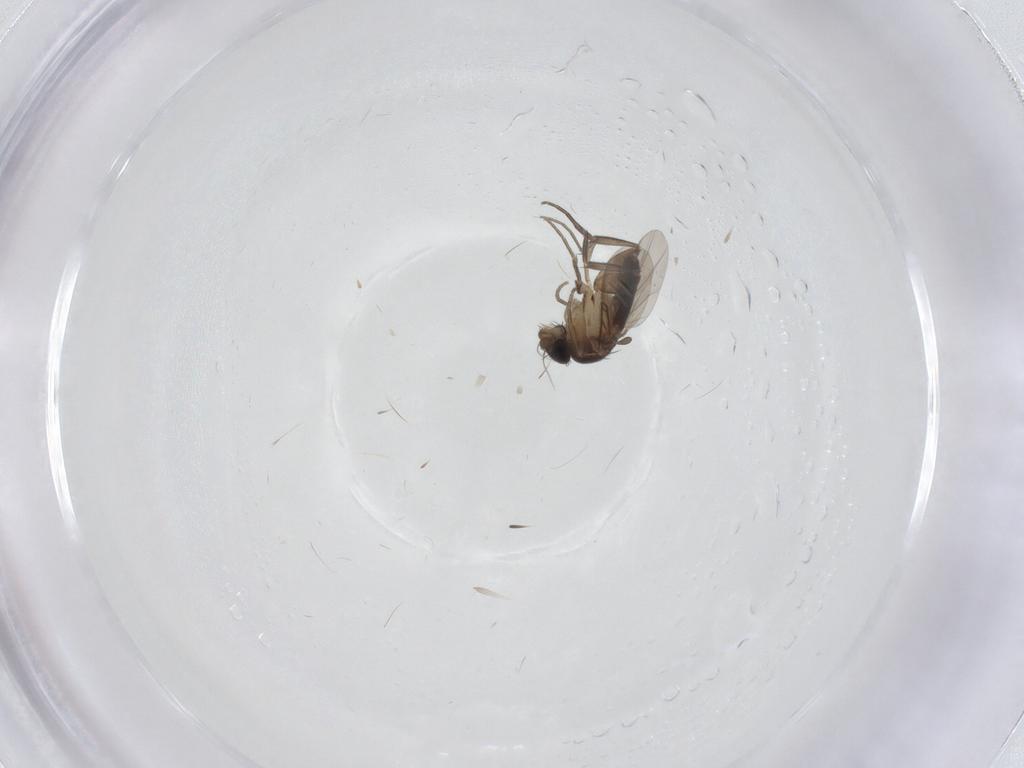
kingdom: Animalia
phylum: Arthropoda
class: Insecta
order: Diptera
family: Phoridae
